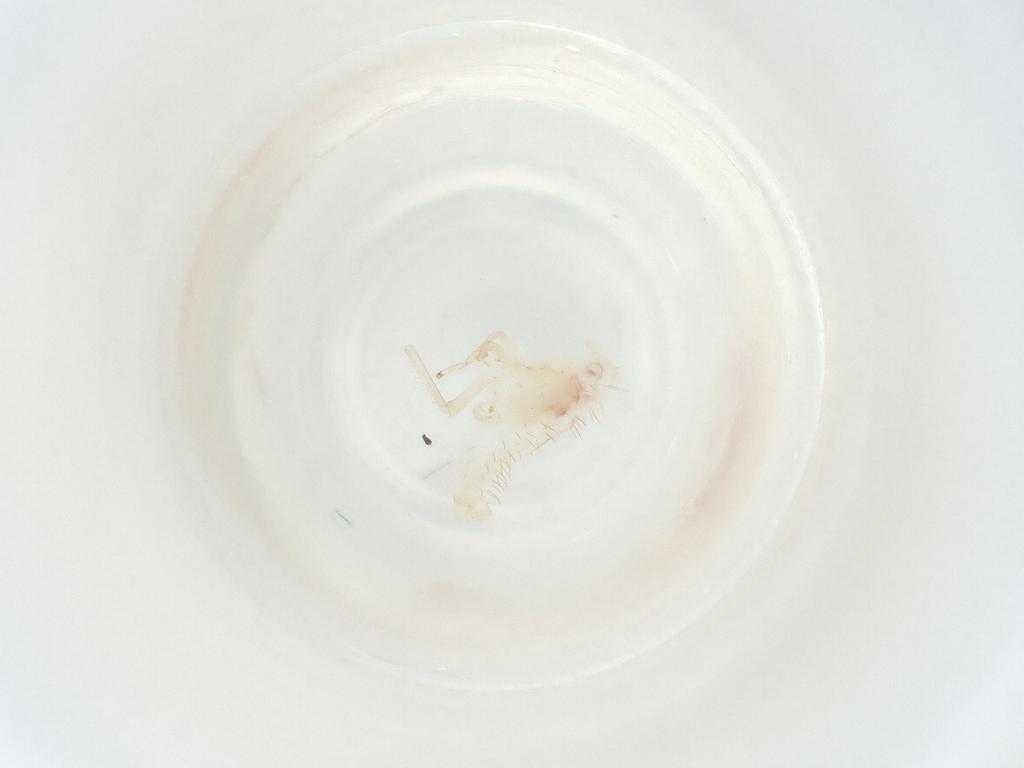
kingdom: Animalia
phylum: Arthropoda
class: Insecta
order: Hemiptera
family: Cicadellidae
